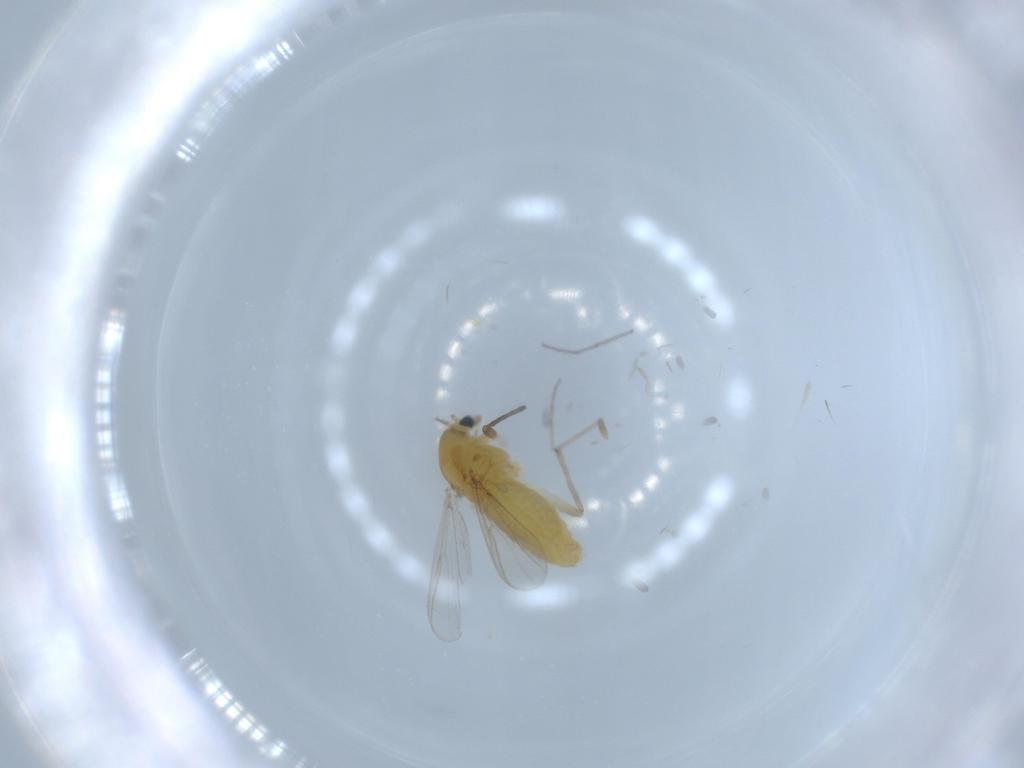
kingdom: Animalia
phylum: Arthropoda
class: Insecta
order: Diptera
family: Chironomidae
